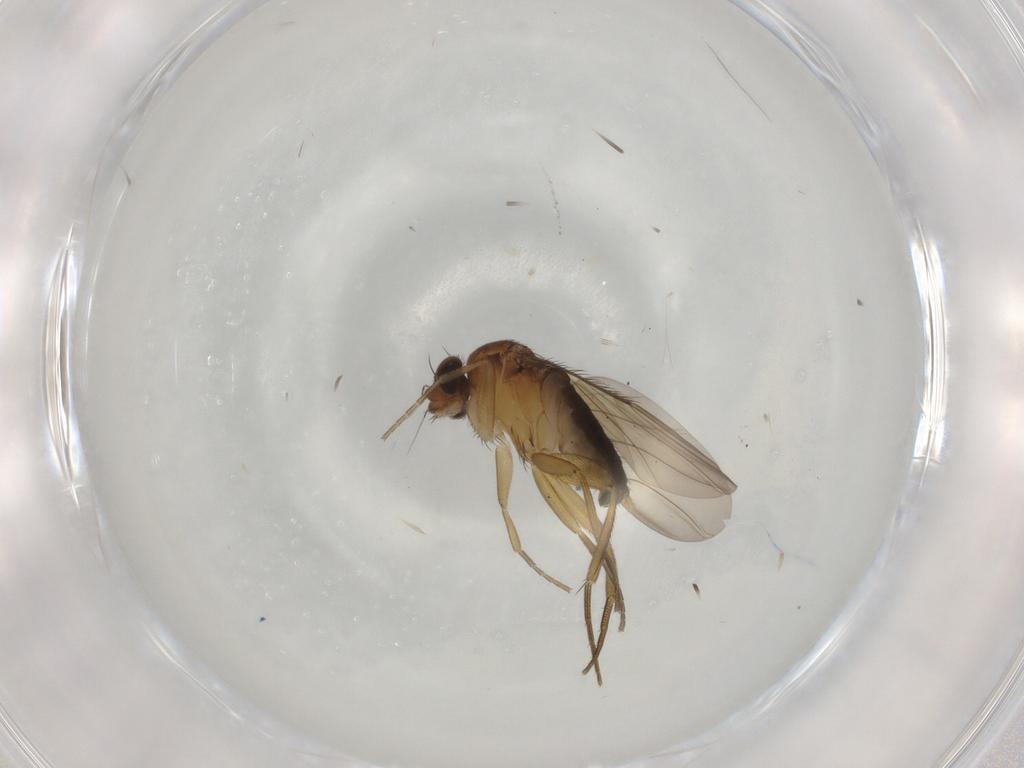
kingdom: Animalia
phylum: Arthropoda
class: Insecta
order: Diptera
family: Phoridae
